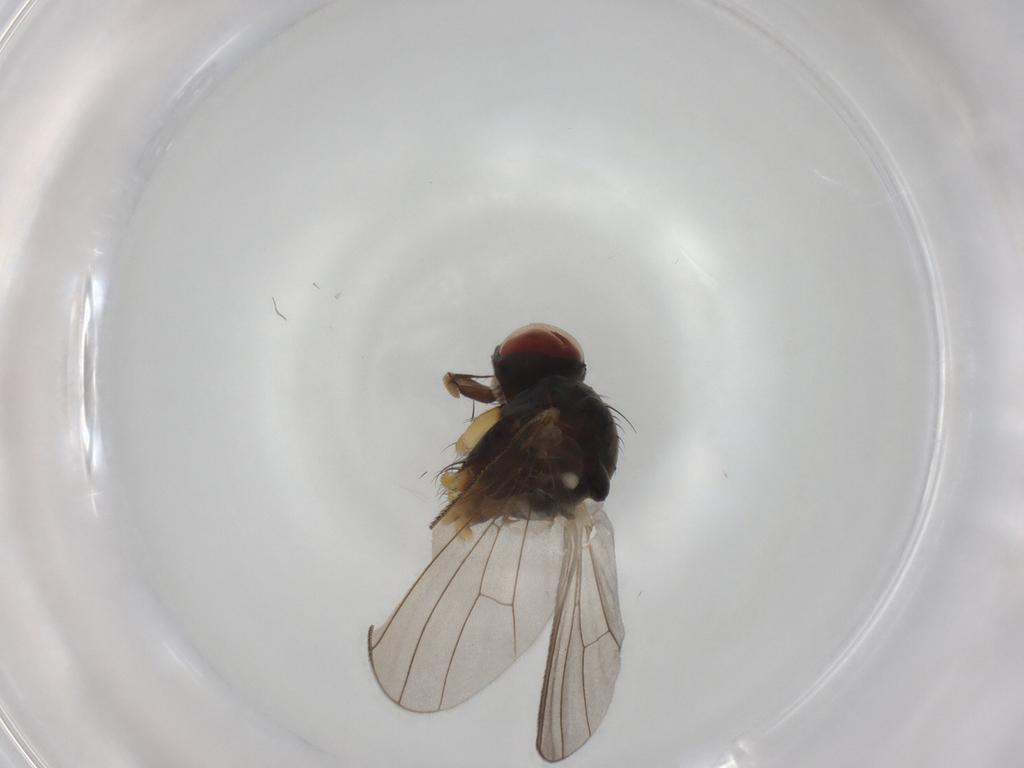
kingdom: Animalia
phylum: Arthropoda
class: Insecta
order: Diptera
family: Muscidae
